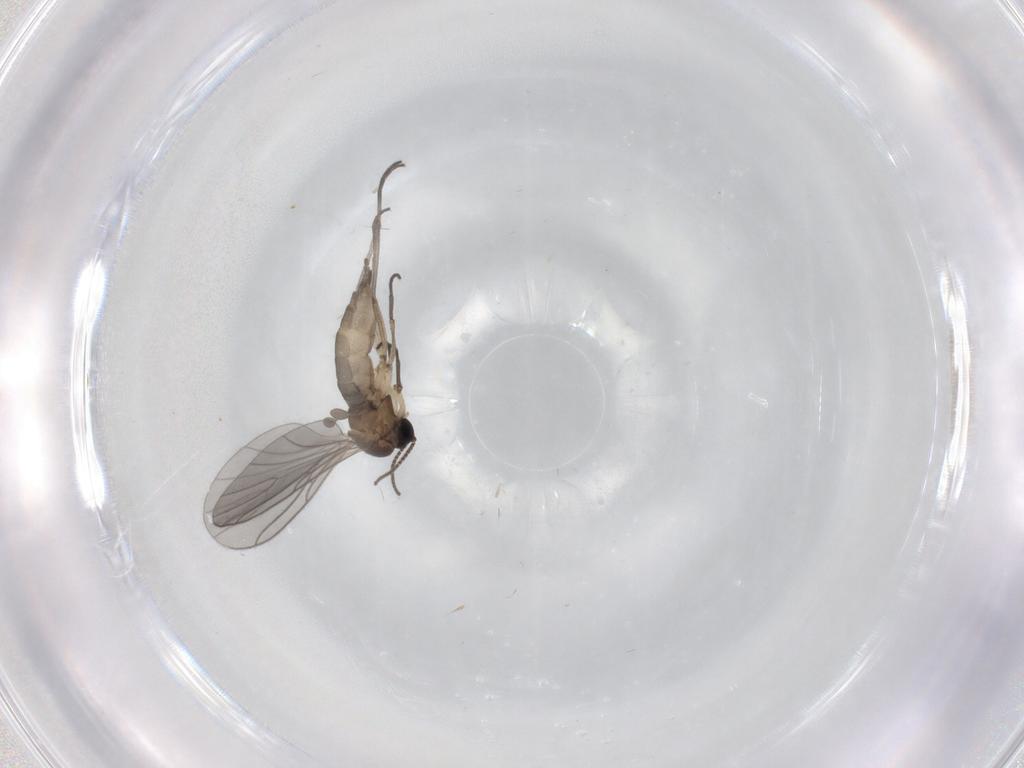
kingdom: Animalia
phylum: Arthropoda
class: Insecta
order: Diptera
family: Sciaridae
